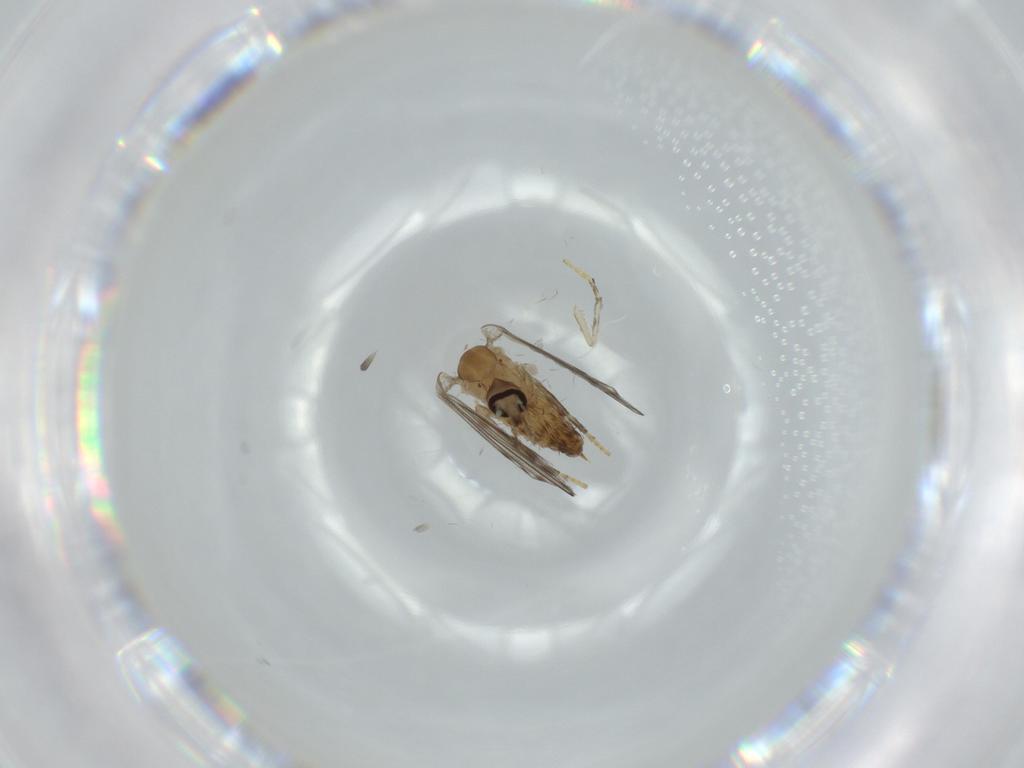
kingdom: Animalia
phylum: Arthropoda
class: Insecta
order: Diptera
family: Psychodidae
